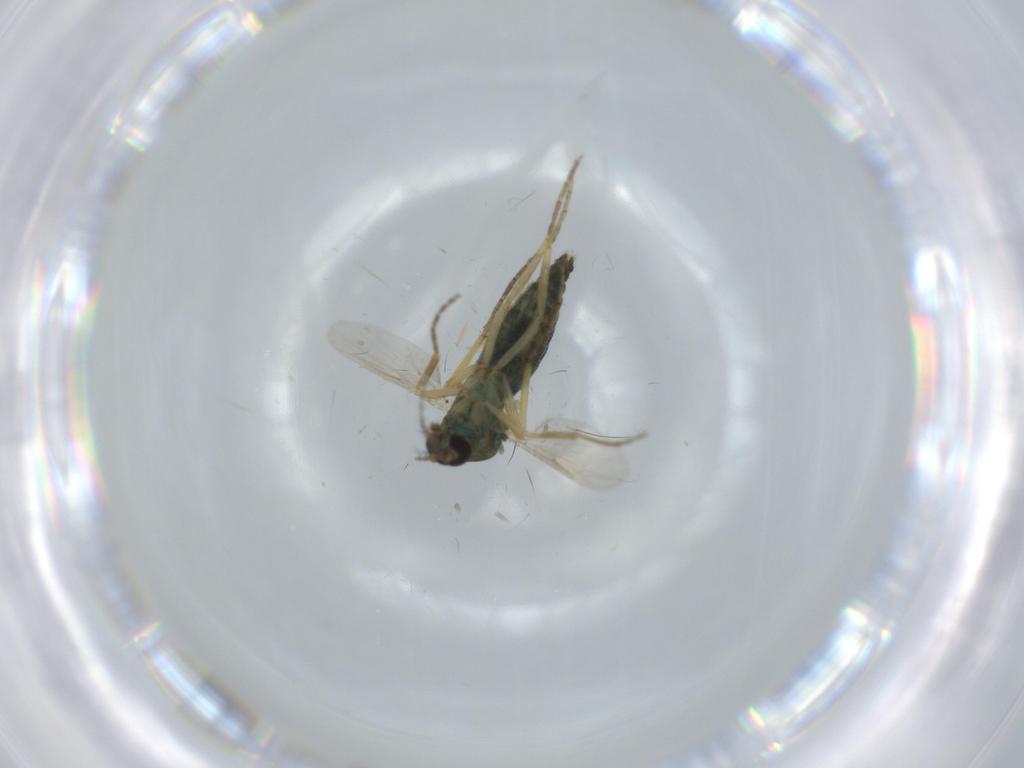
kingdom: Animalia
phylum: Arthropoda
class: Insecta
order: Diptera
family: Ceratopogonidae
